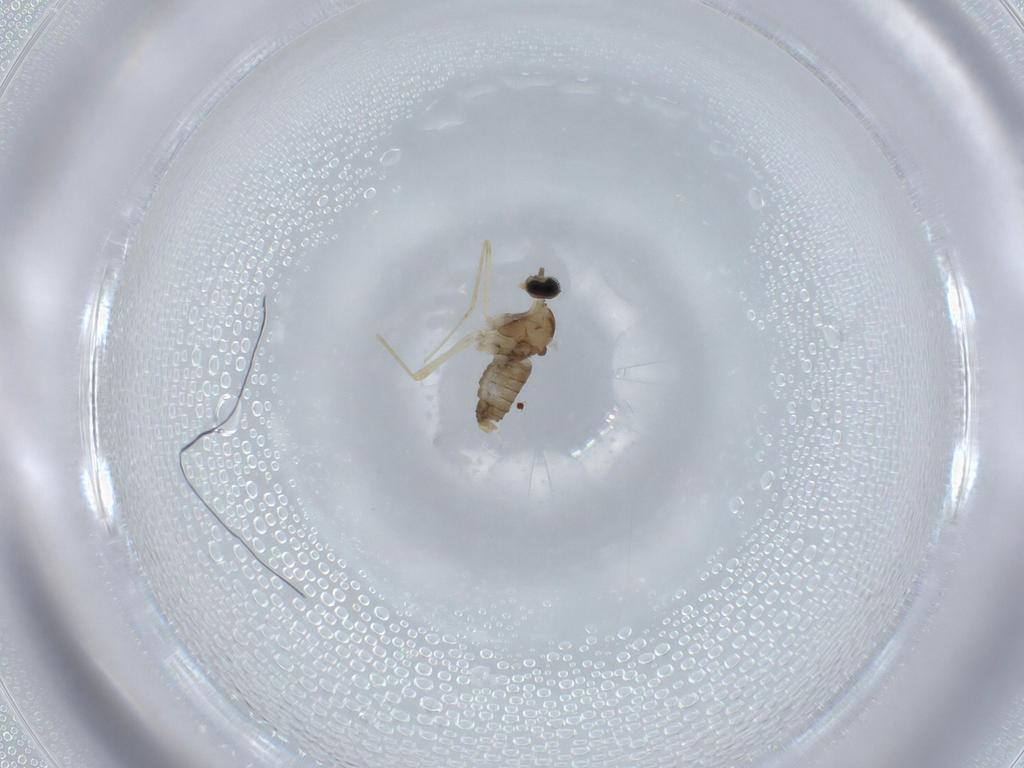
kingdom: Animalia
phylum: Arthropoda
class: Insecta
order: Diptera
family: Cecidomyiidae
